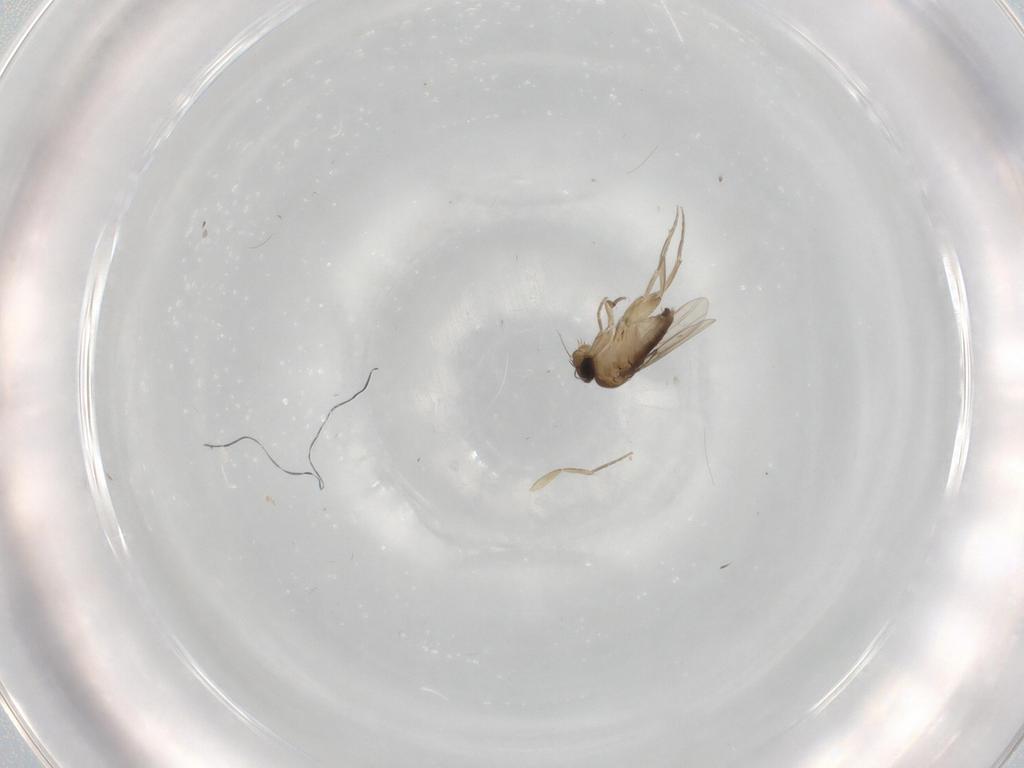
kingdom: Animalia
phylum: Arthropoda
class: Insecta
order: Diptera
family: Phoridae
